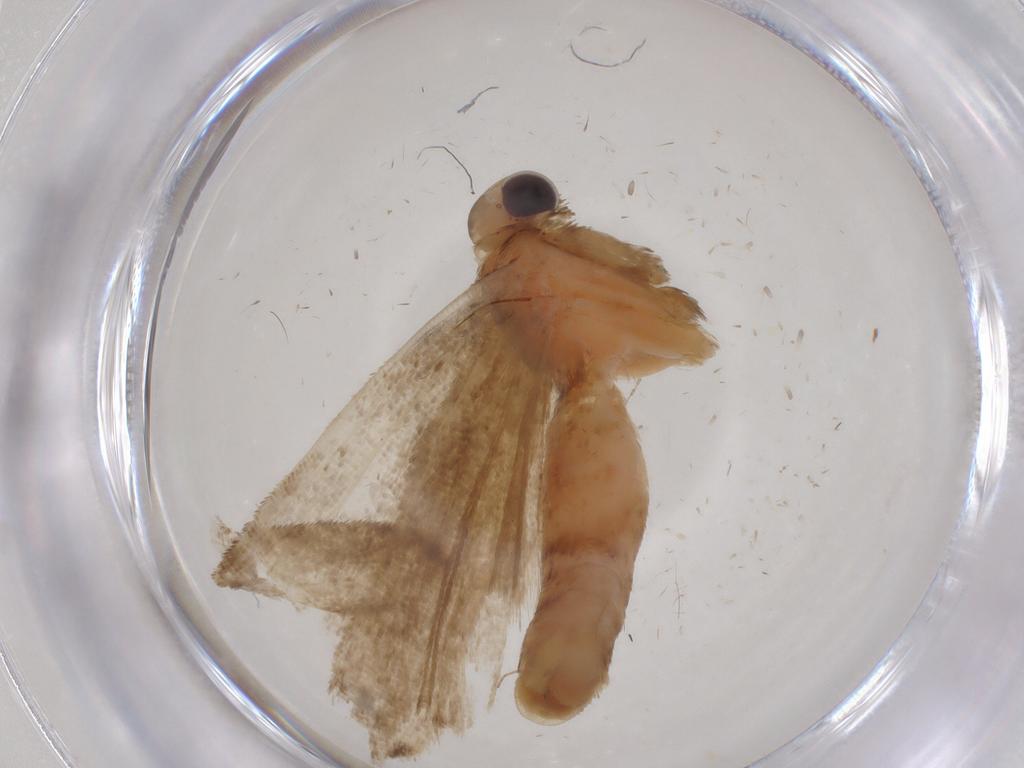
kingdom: Animalia
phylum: Arthropoda
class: Insecta
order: Lepidoptera
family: Erebidae
